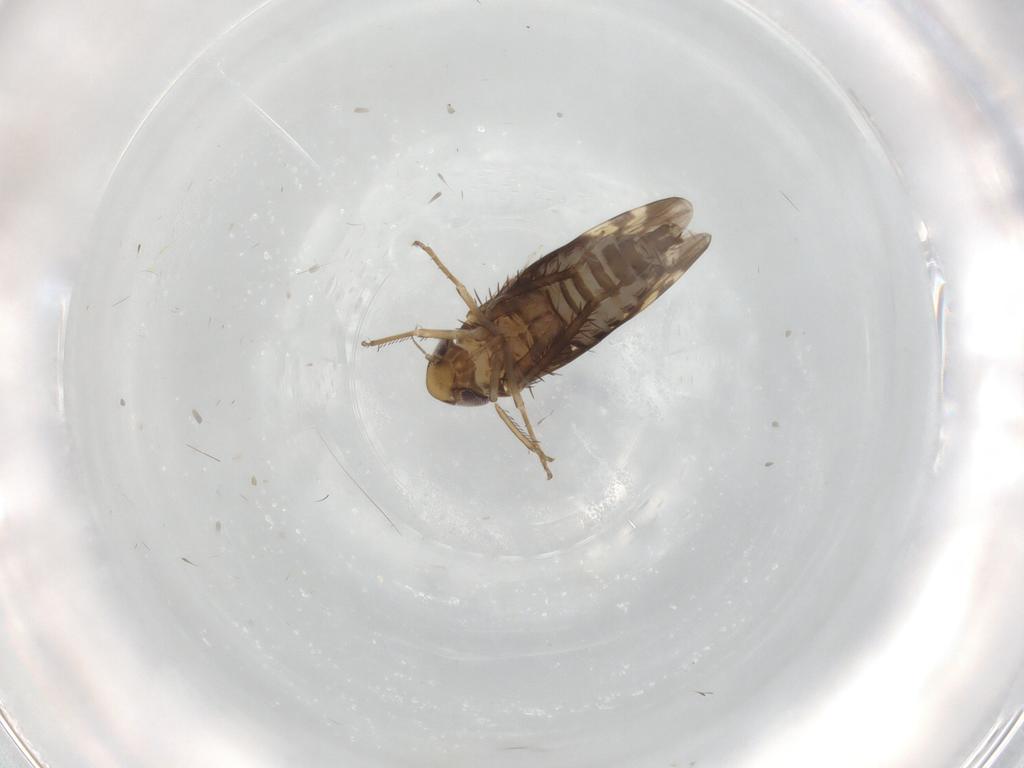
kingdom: Animalia
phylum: Arthropoda
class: Insecta
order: Hemiptera
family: Cicadellidae
